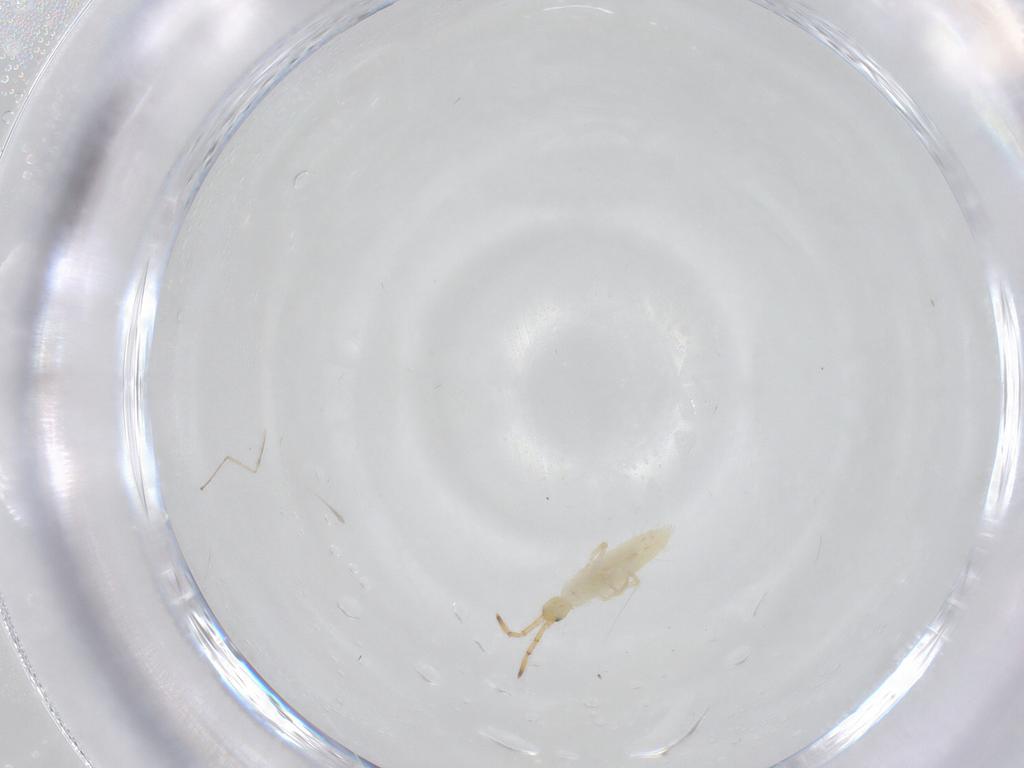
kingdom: Animalia
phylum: Arthropoda
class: Collembola
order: Entomobryomorpha
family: Entomobryidae
